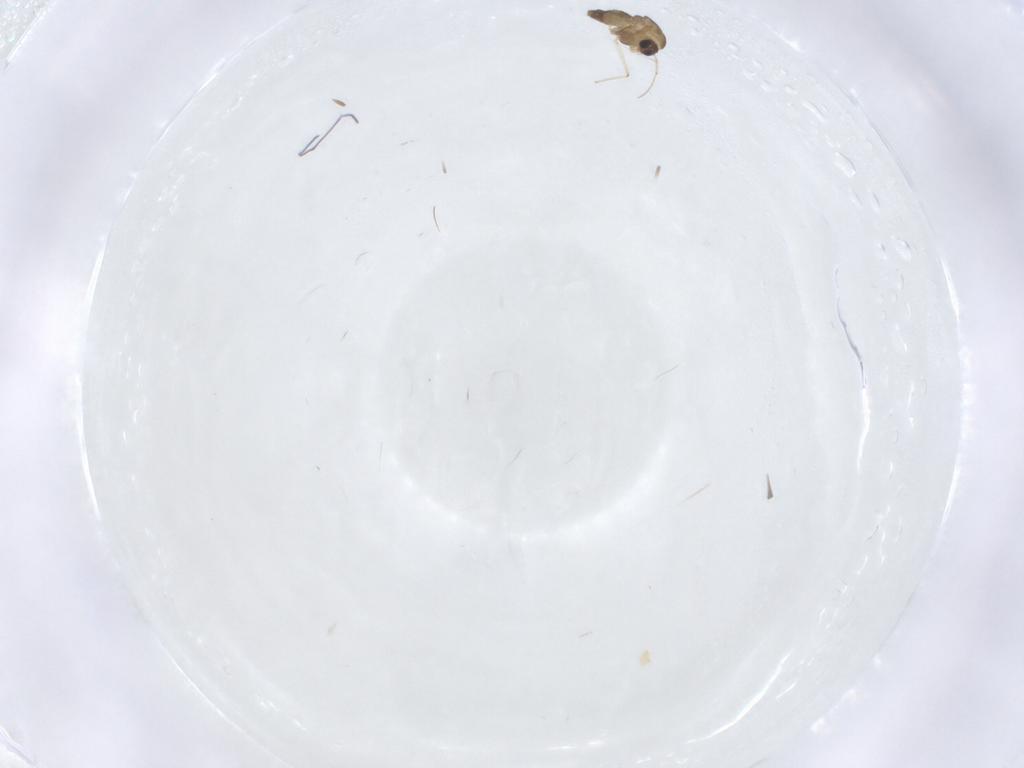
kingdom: Animalia
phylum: Arthropoda
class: Insecta
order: Diptera
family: Chironomidae
